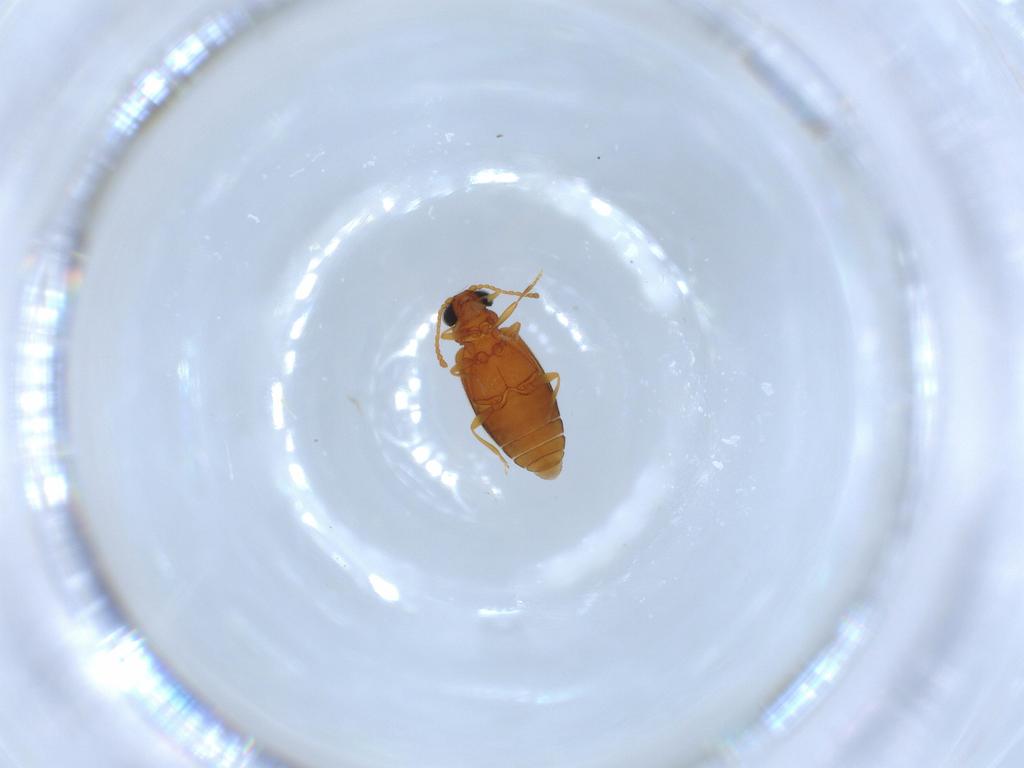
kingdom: Animalia
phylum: Arthropoda
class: Insecta
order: Coleoptera
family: Aderidae
